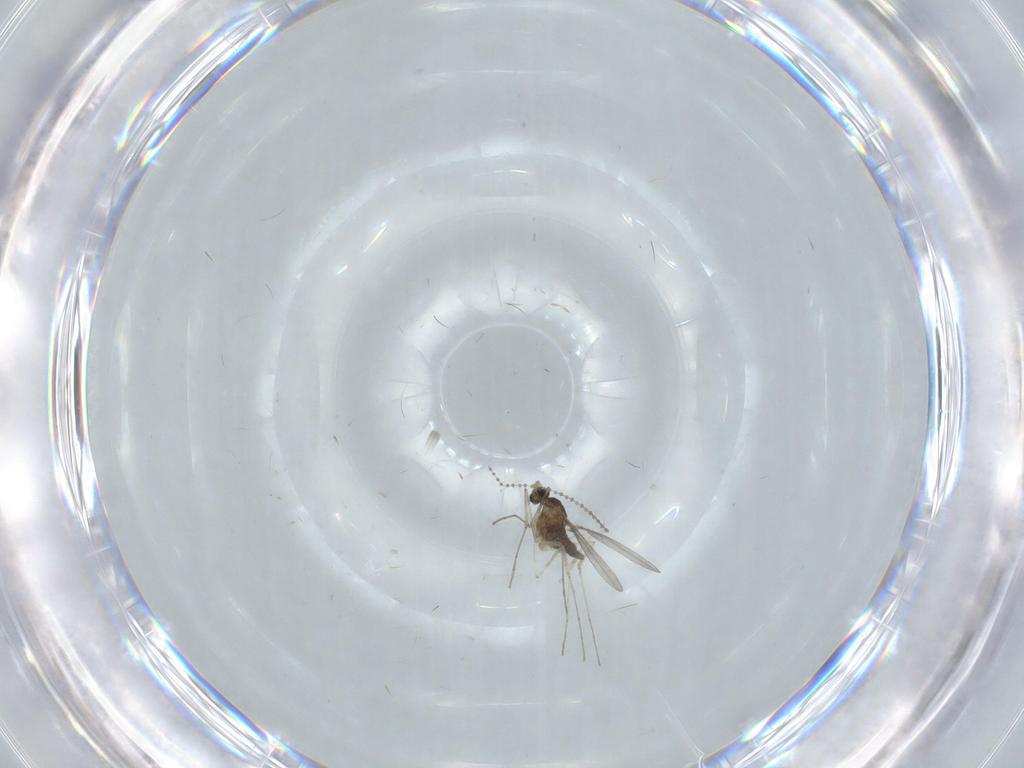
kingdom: Animalia
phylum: Arthropoda
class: Insecta
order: Diptera
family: Cecidomyiidae
